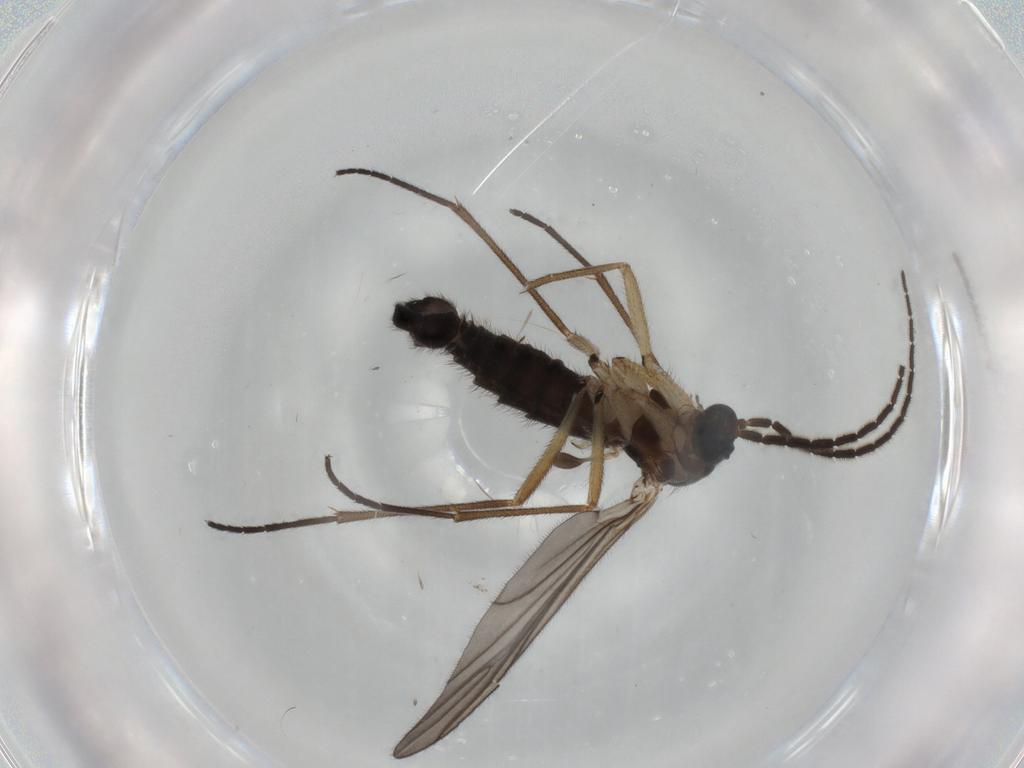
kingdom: Animalia
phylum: Arthropoda
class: Insecta
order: Diptera
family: Sciaridae
